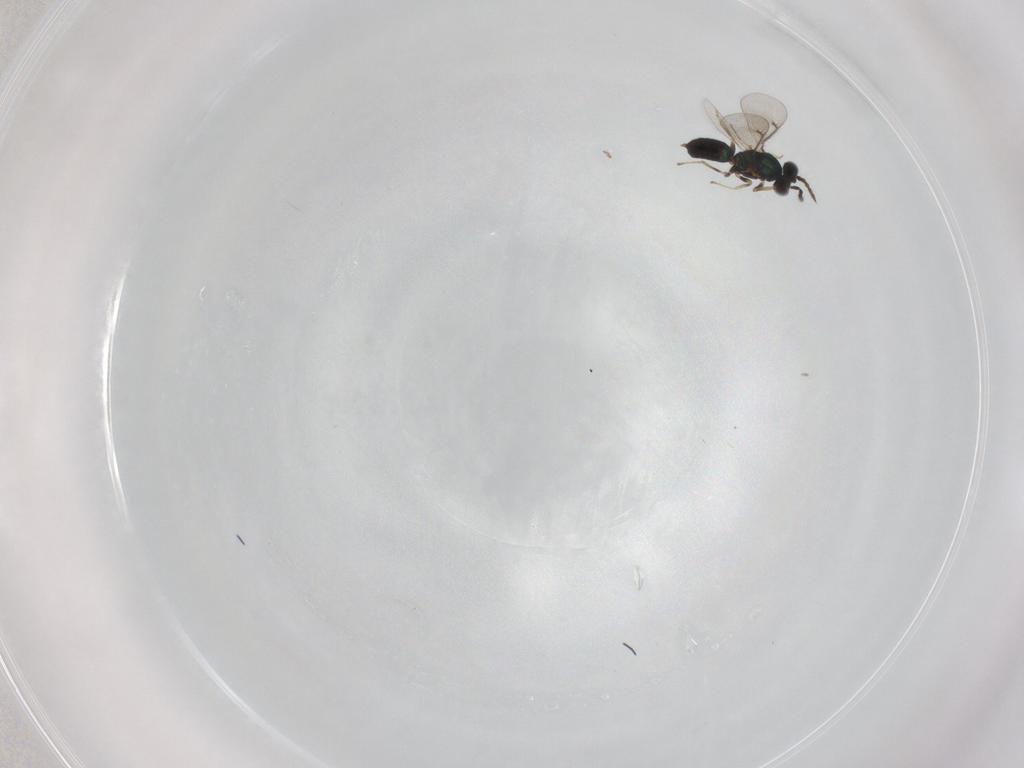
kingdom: Animalia
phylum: Arthropoda
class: Insecta
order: Hymenoptera
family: Eulophidae
